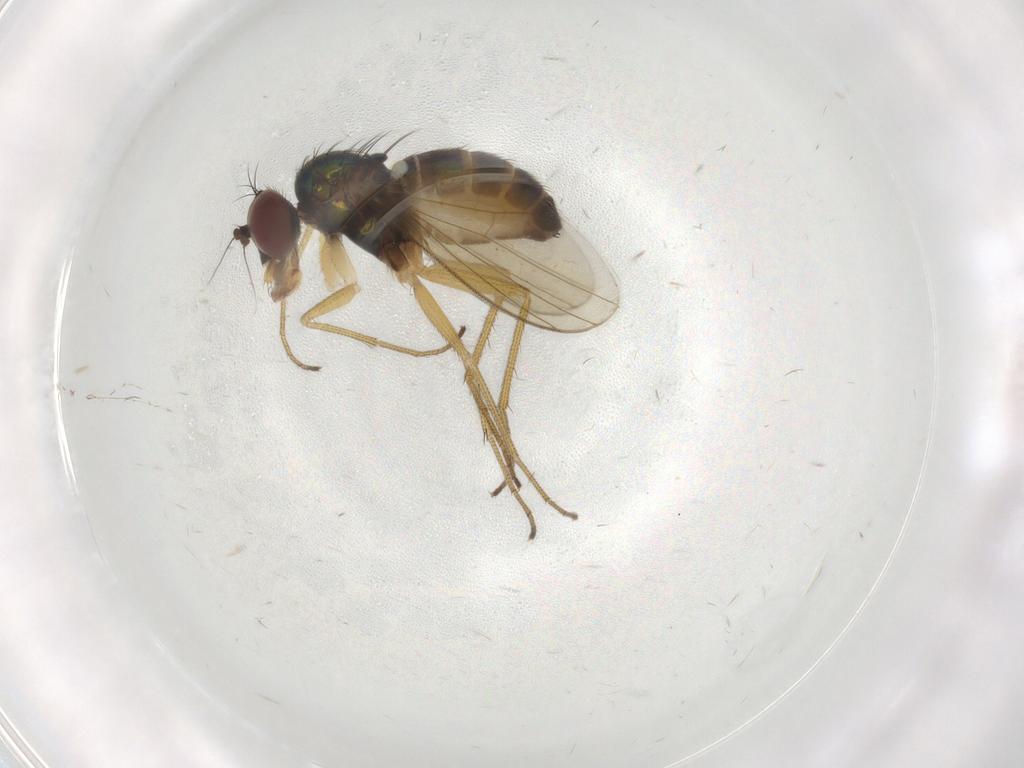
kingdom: Animalia
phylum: Arthropoda
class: Insecta
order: Diptera
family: Dolichopodidae
